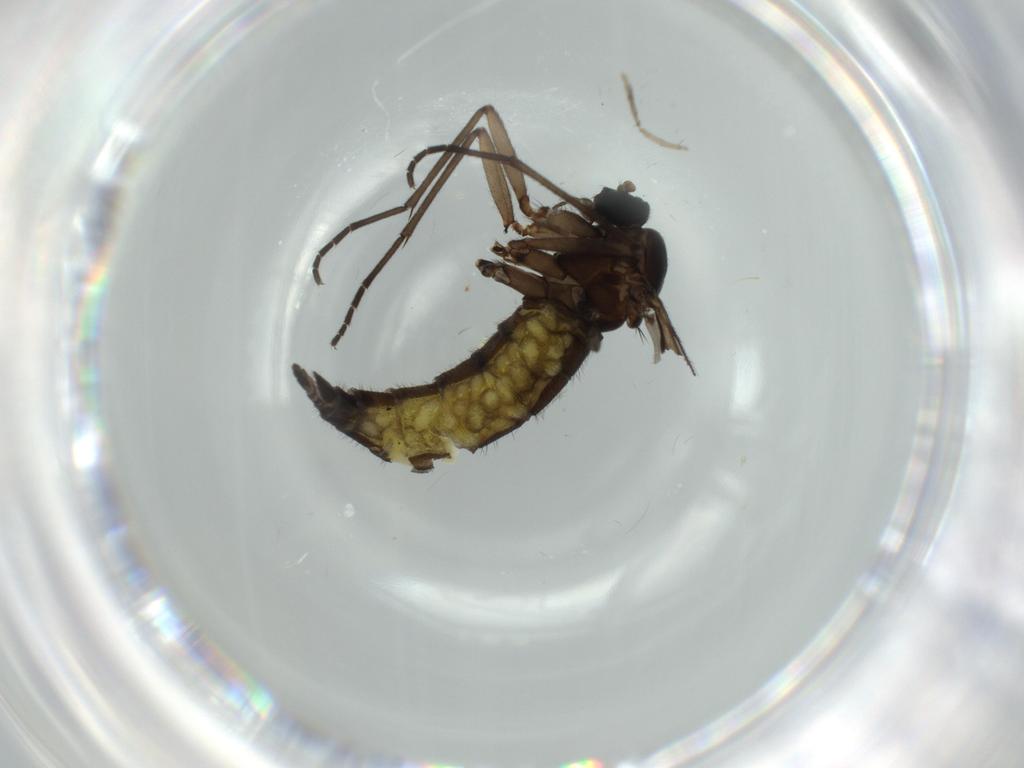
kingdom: Animalia
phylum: Arthropoda
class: Insecta
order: Diptera
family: Sciaridae
